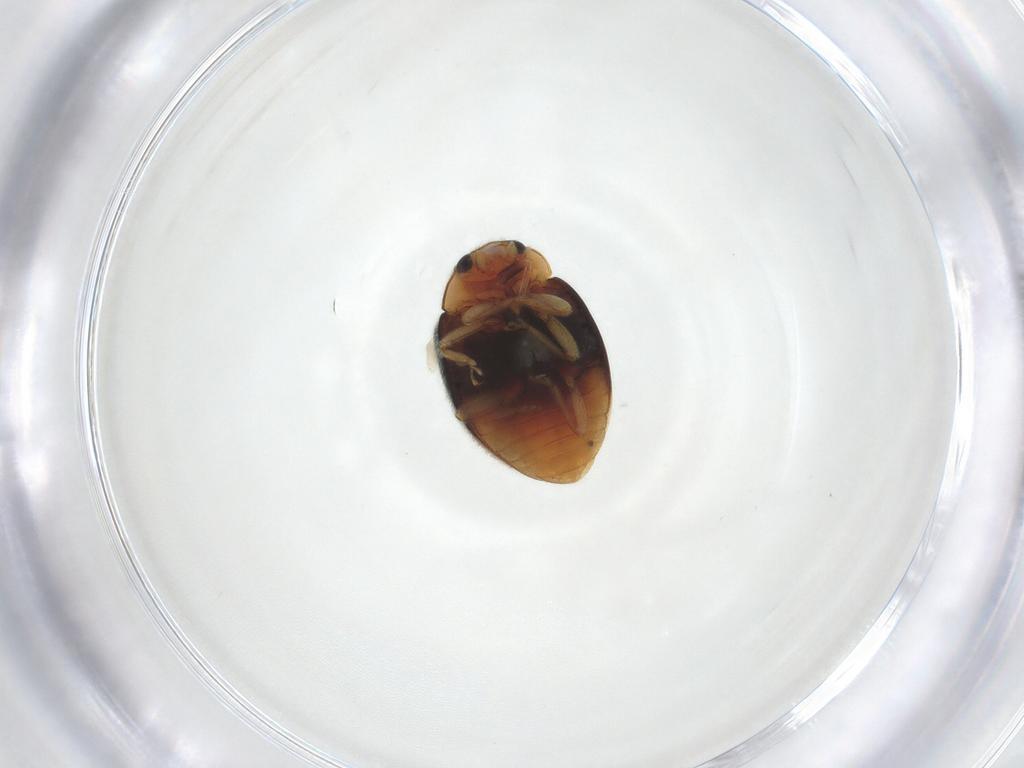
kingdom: Animalia
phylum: Arthropoda
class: Insecta
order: Coleoptera
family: Coccinellidae
